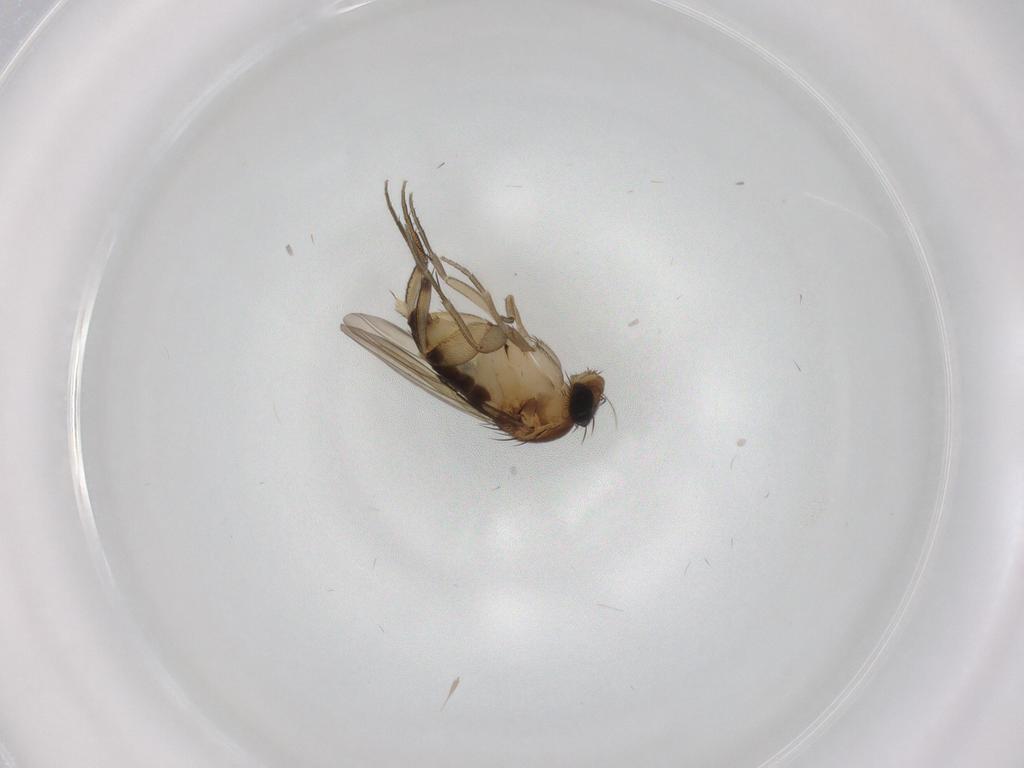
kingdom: Animalia
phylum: Arthropoda
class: Insecta
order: Diptera
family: Phoridae
